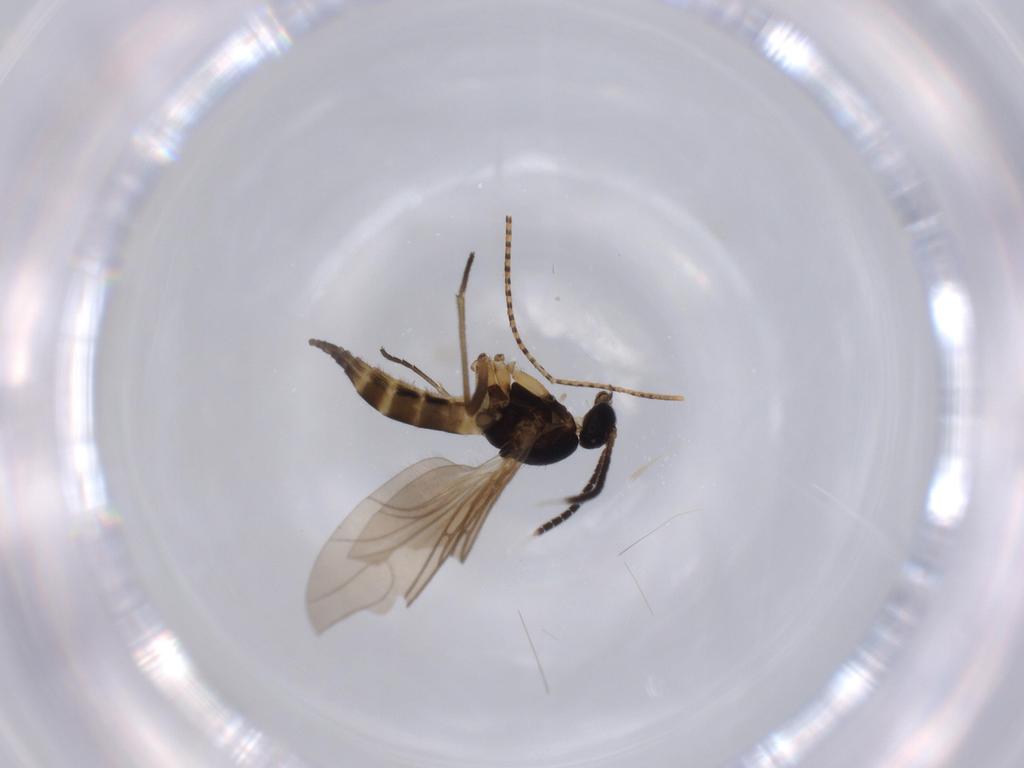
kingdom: Animalia
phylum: Arthropoda
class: Insecta
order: Diptera
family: Sciaridae
